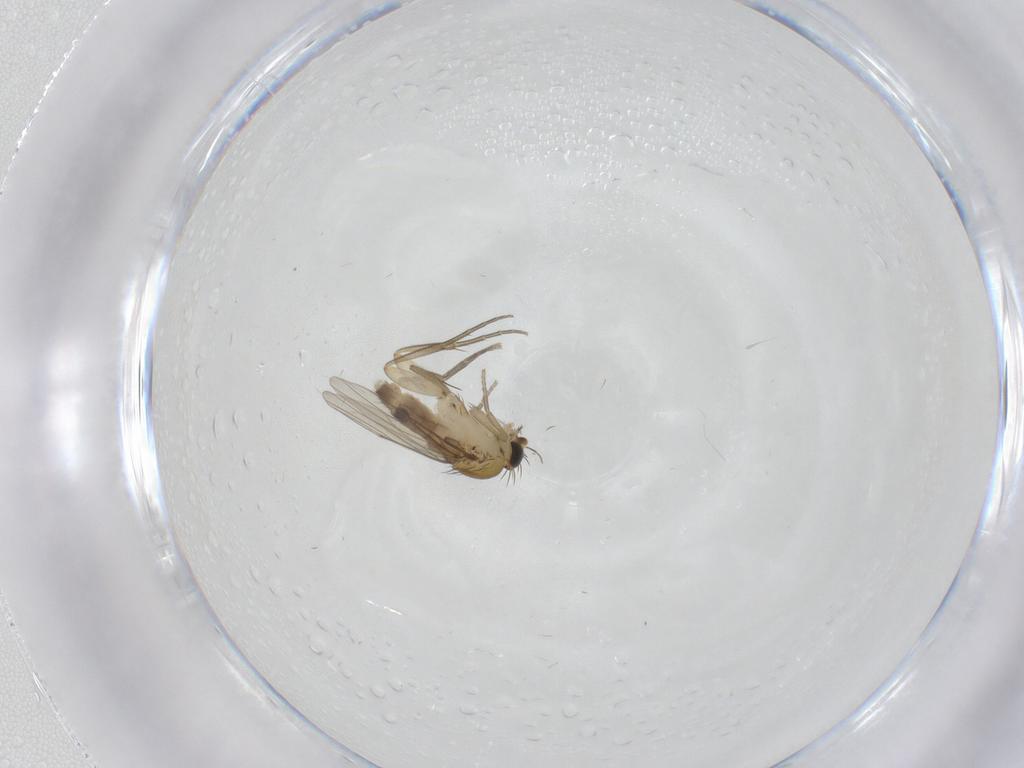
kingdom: Animalia
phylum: Arthropoda
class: Insecta
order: Diptera
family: Phoridae
